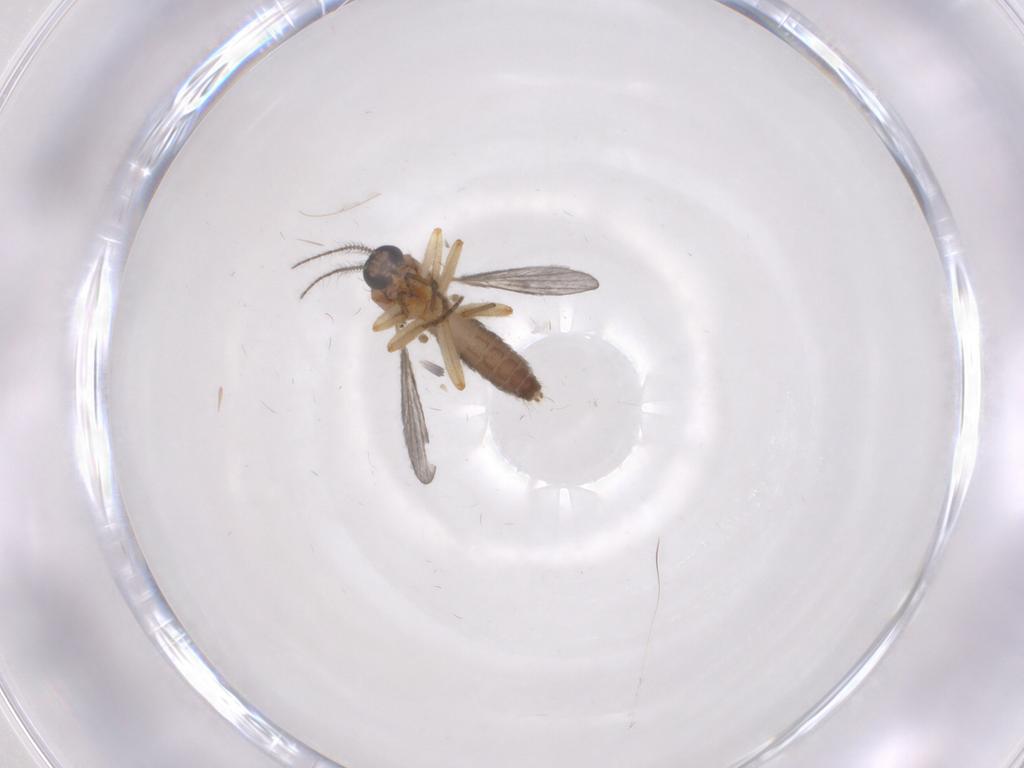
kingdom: Animalia
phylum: Arthropoda
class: Insecta
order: Diptera
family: Ceratopogonidae
